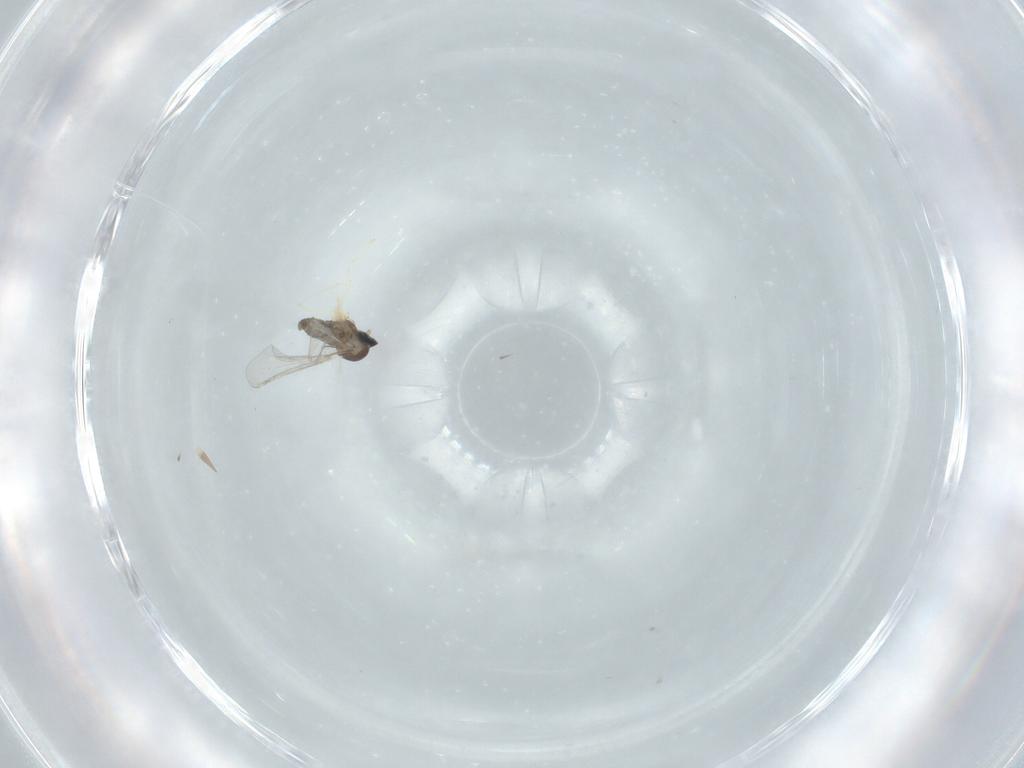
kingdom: Animalia
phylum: Arthropoda
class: Insecta
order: Diptera
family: Cecidomyiidae
